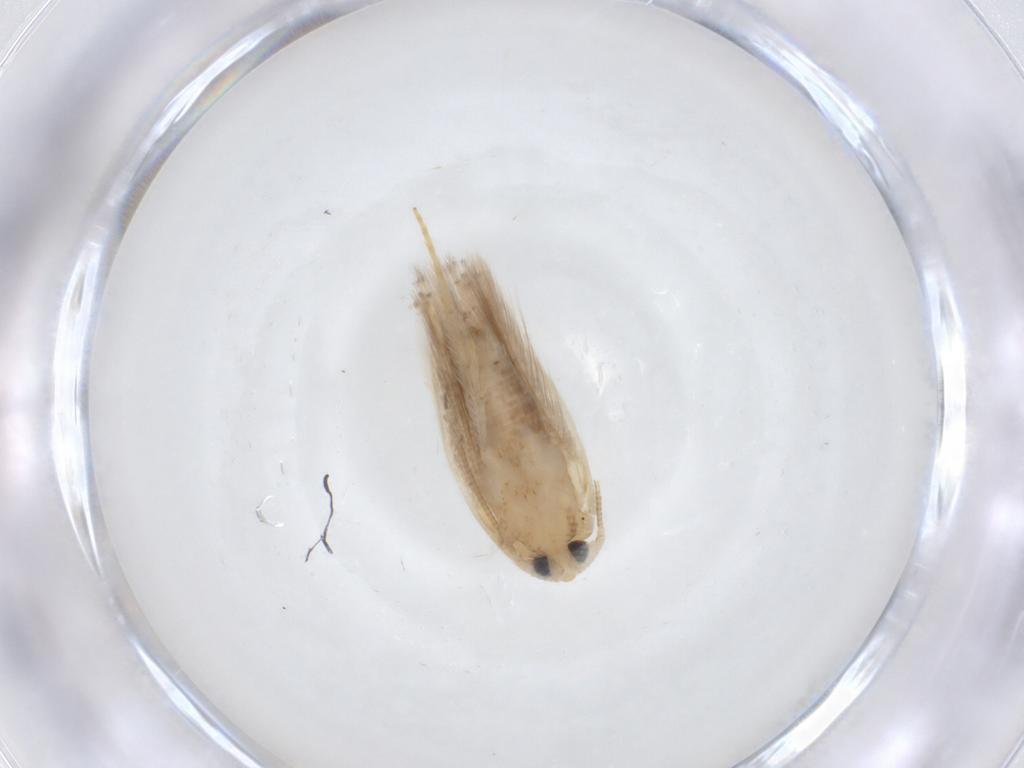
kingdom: Animalia
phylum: Arthropoda
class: Insecta
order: Lepidoptera
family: Opostegidae
